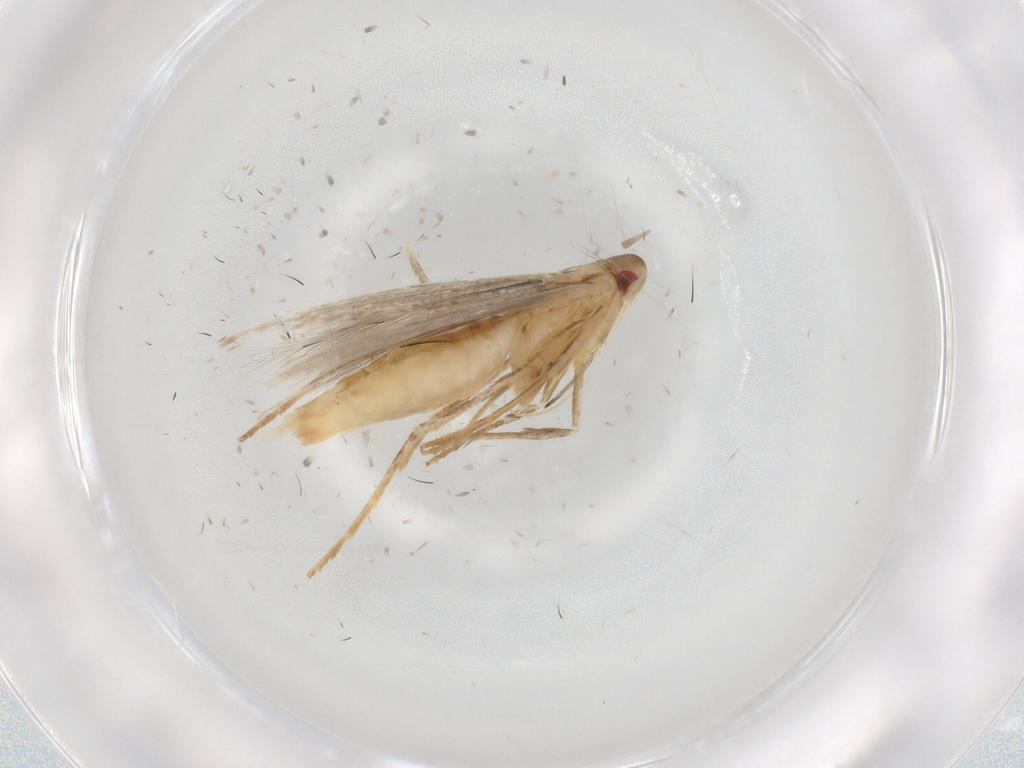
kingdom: Animalia
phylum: Arthropoda
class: Insecta
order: Lepidoptera
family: Cosmopterigidae
